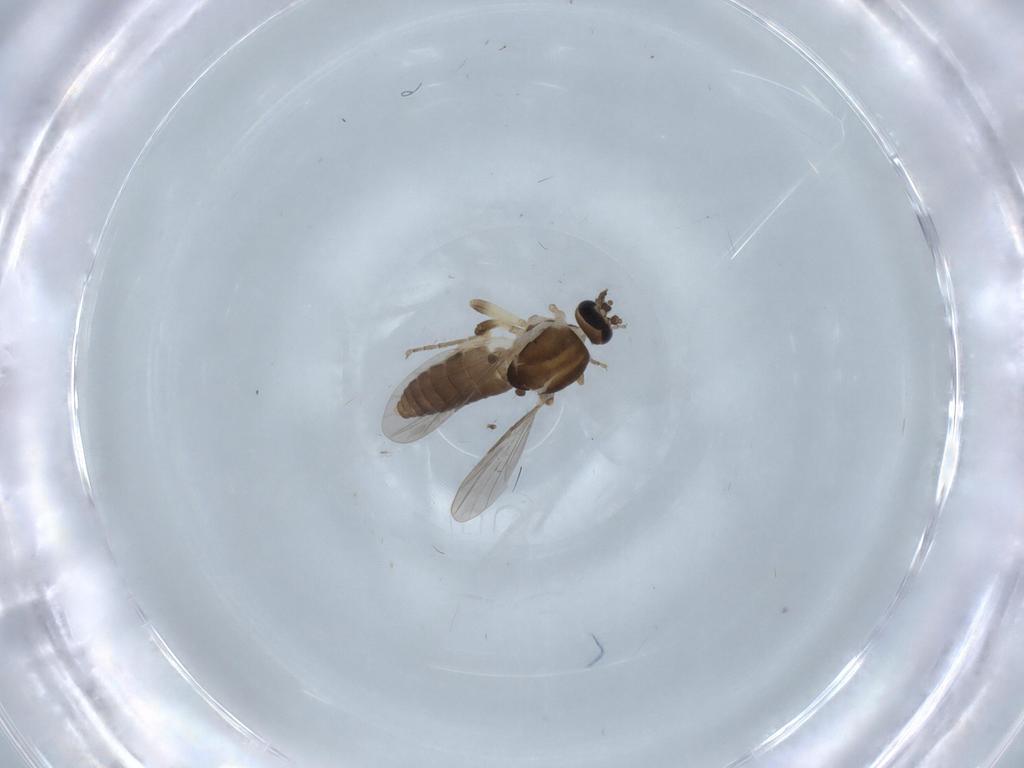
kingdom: Animalia
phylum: Arthropoda
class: Insecta
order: Diptera
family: Ceratopogonidae
